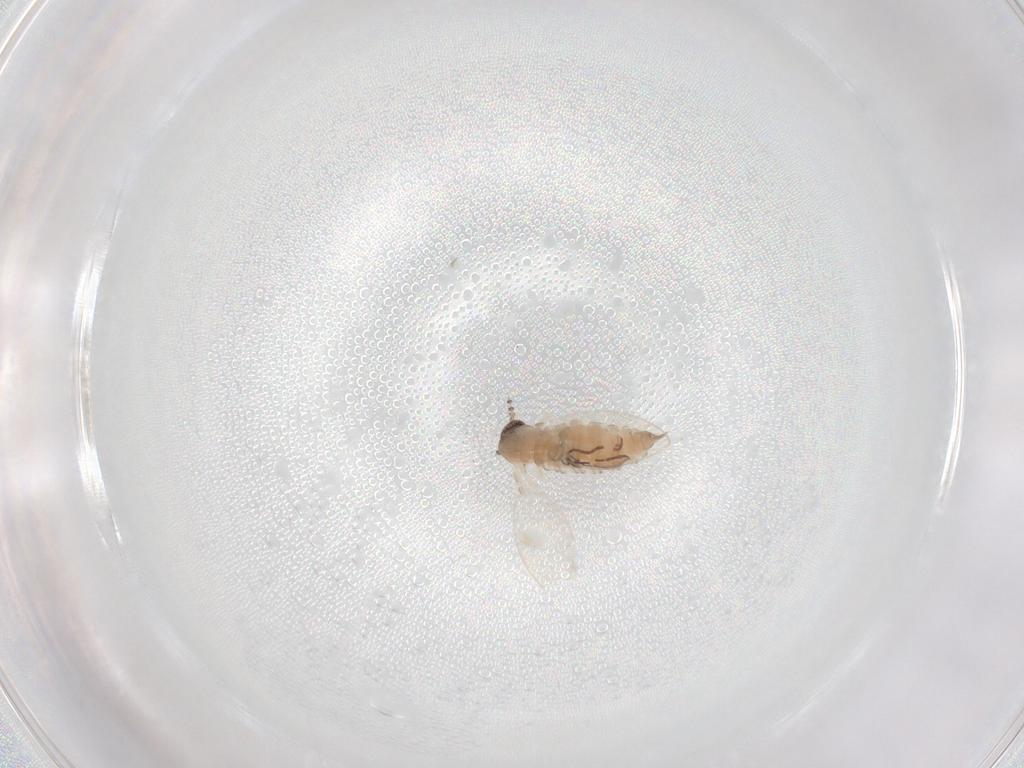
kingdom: Animalia
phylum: Arthropoda
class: Insecta
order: Diptera
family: Psychodidae
